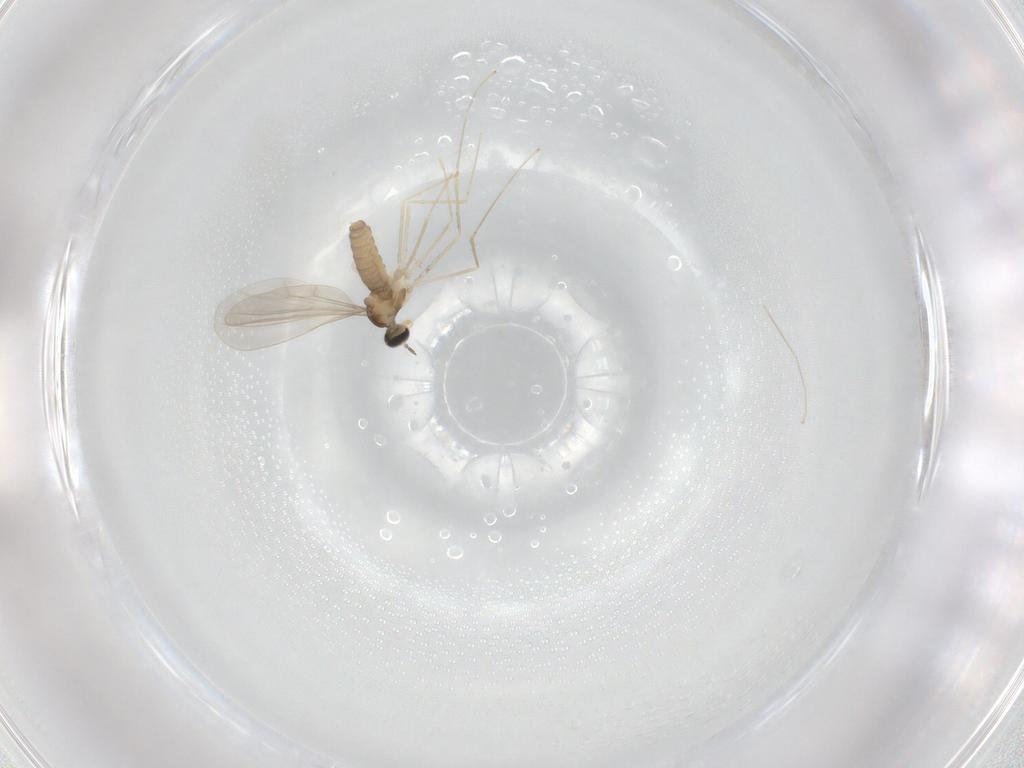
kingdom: Animalia
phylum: Arthropoda
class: Insecta
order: Diptera
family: Cecidomyiidae
